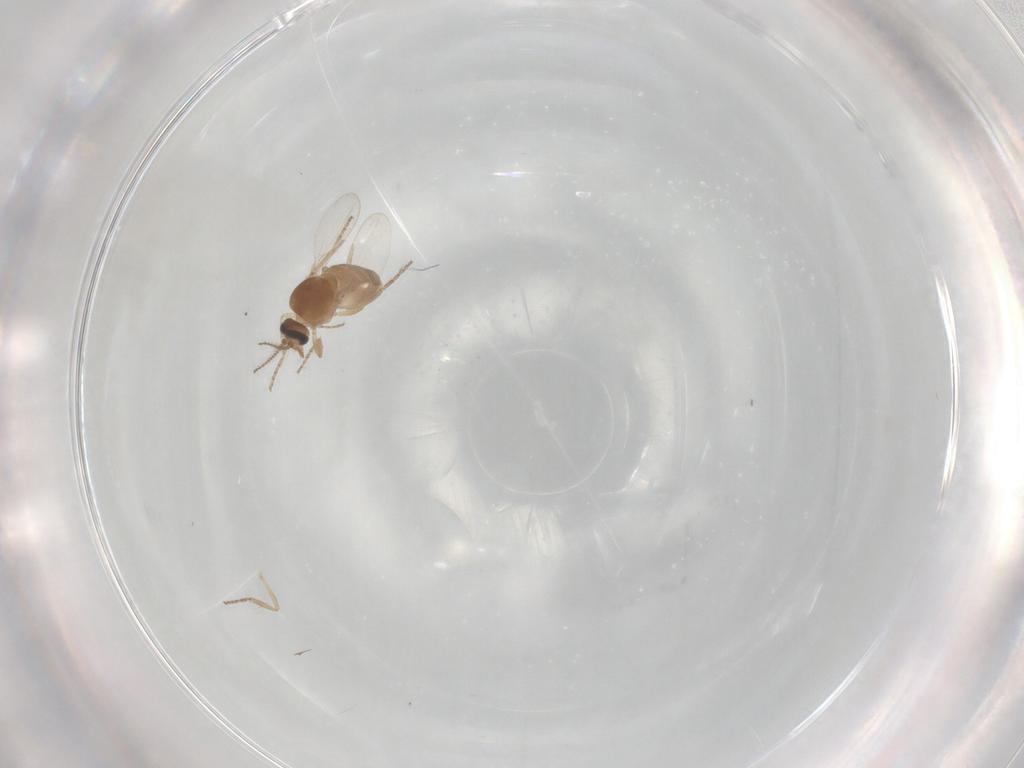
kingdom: Animalia
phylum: Arthropoda
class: Insecta
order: Diptera
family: Ceratopogonidae
